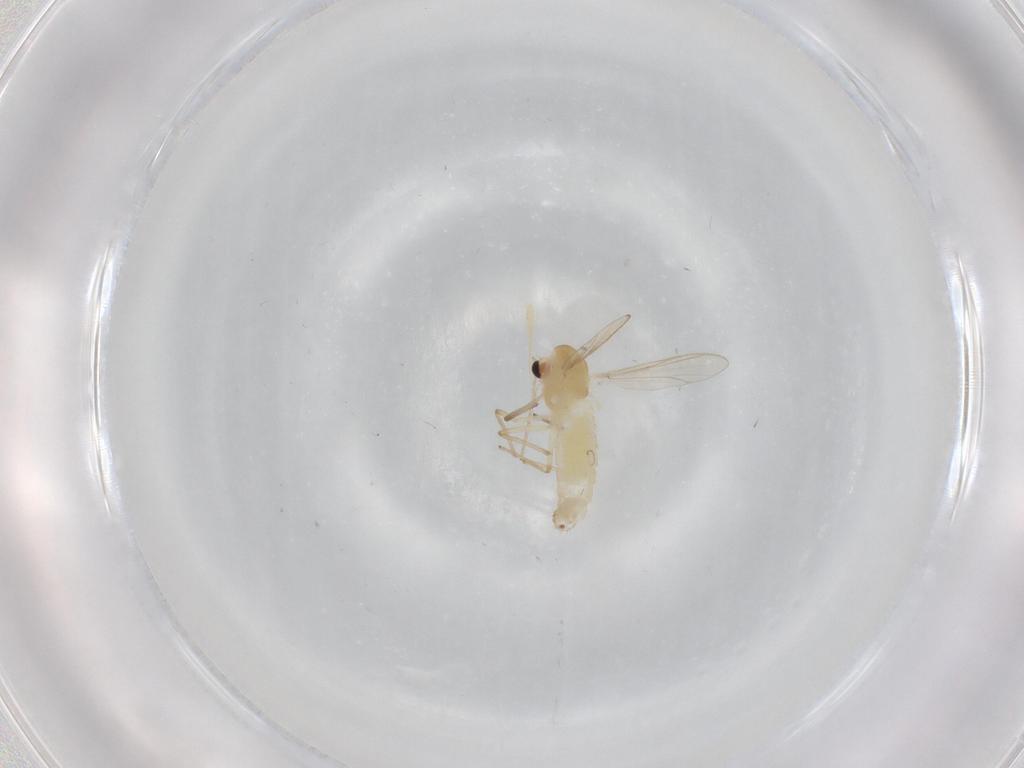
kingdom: Animalia
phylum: Arthropoda
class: Insecta
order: Diptera
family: Chironomidae
